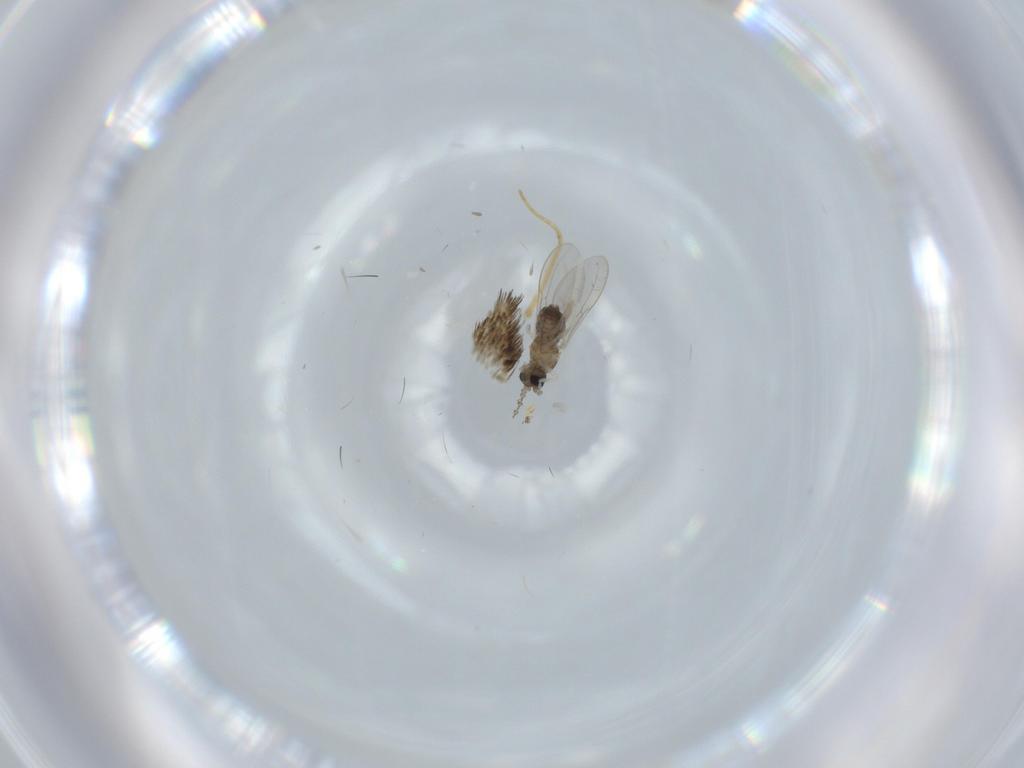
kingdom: Animalia
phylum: Arthropoda
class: Insecta
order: Diptera
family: Cecidomyiidae
